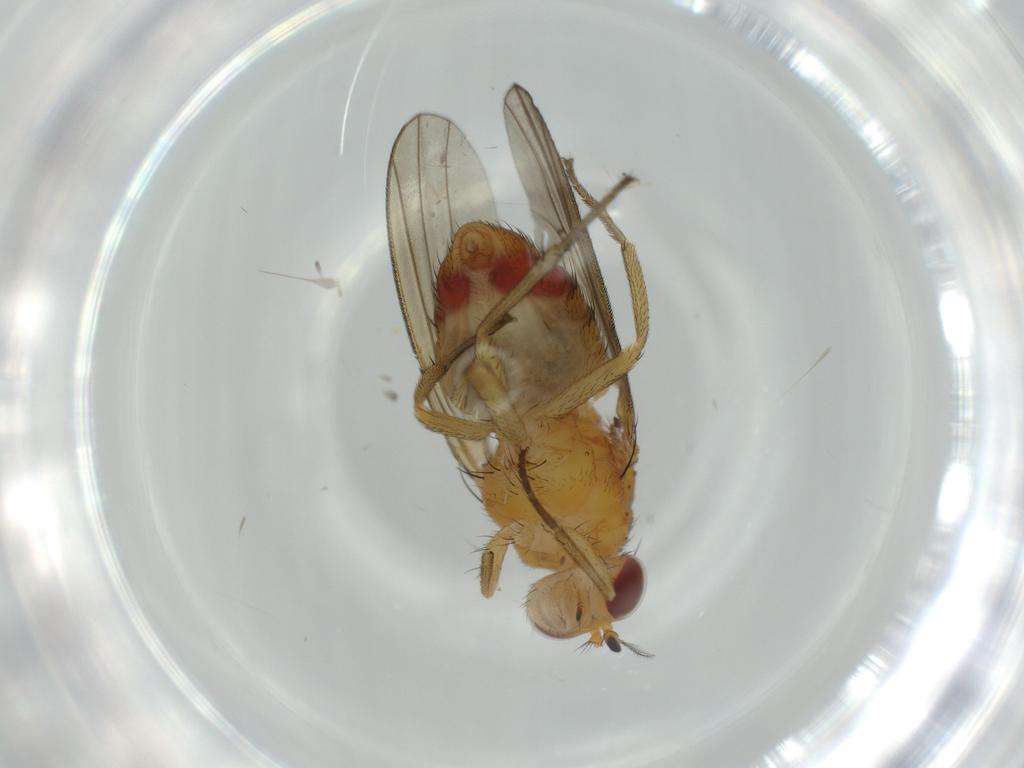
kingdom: Animalia
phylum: Arthropoda
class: Insecta
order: Diptera
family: Lauxaniidae
